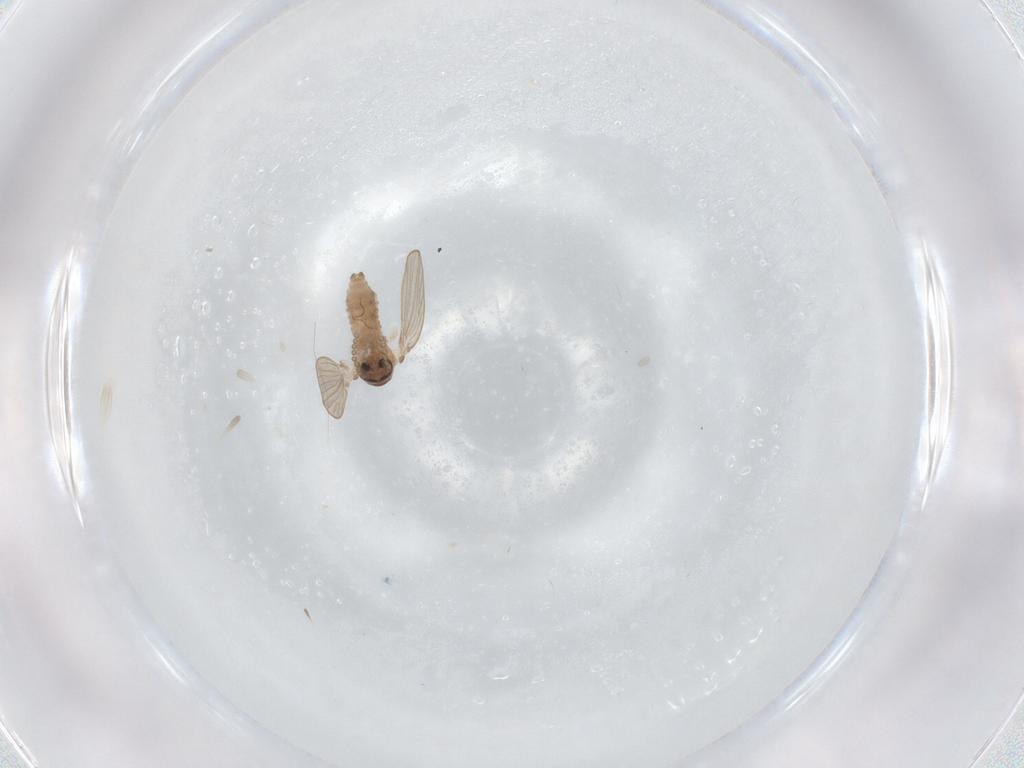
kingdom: Animalia
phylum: Arthropoda
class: Insecta
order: Diptera
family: Psychodidae
